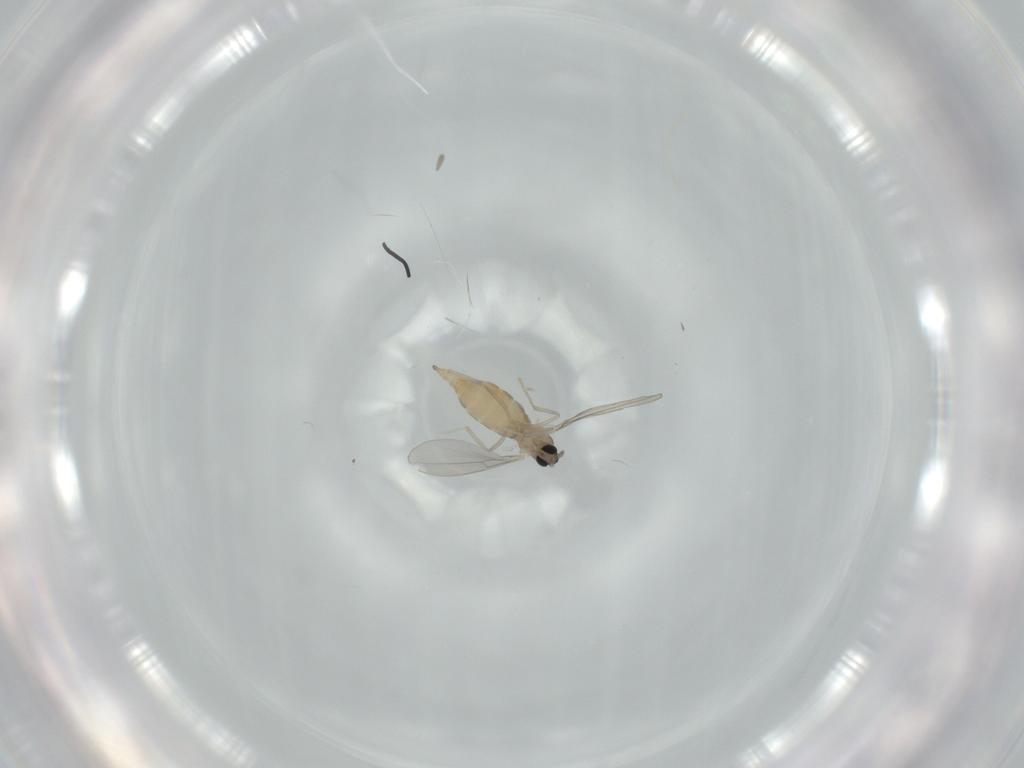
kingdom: Animalia
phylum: Arthropoda
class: Insecta
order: Diptera
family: Cecidomyiidae
